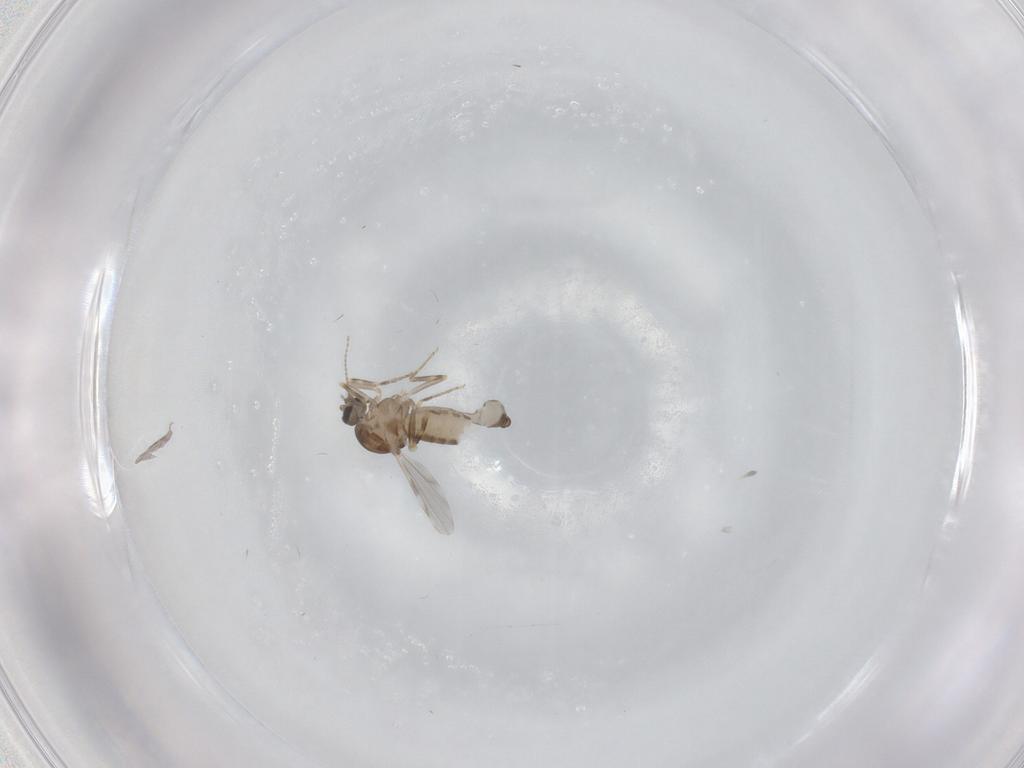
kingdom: Animalia
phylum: Arthropoda
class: Insecta
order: Diptera
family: Ceratopogonidae
